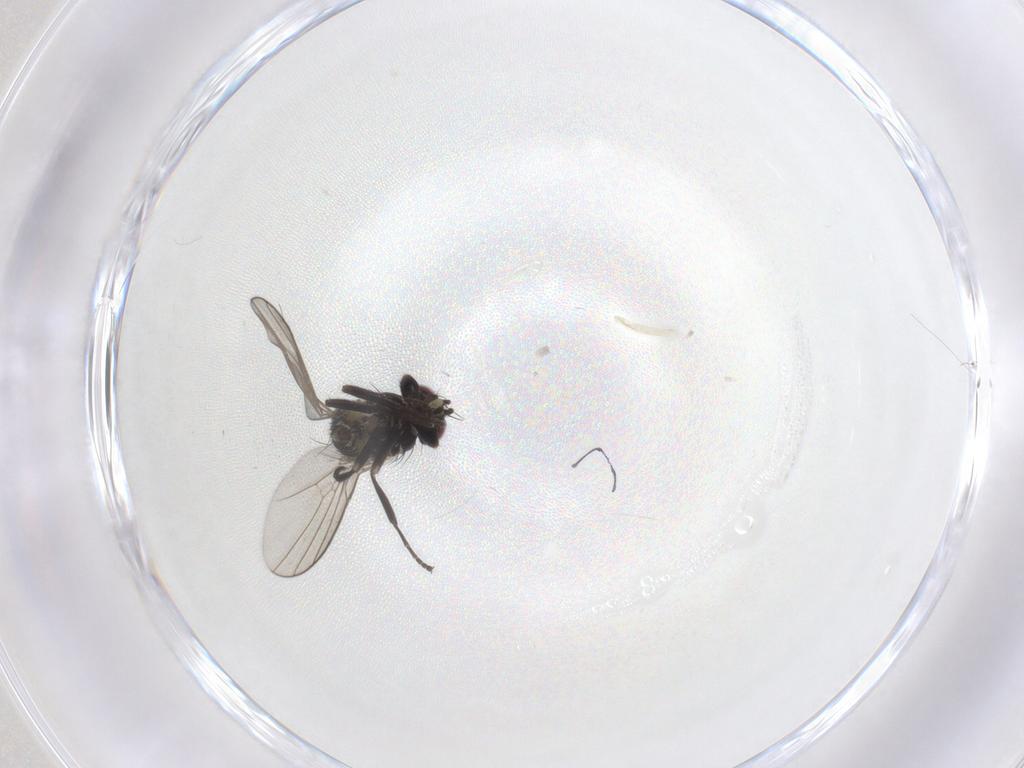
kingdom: Animalia
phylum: Arthropoda
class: Insecta
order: Diptera
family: Agromyzidae
